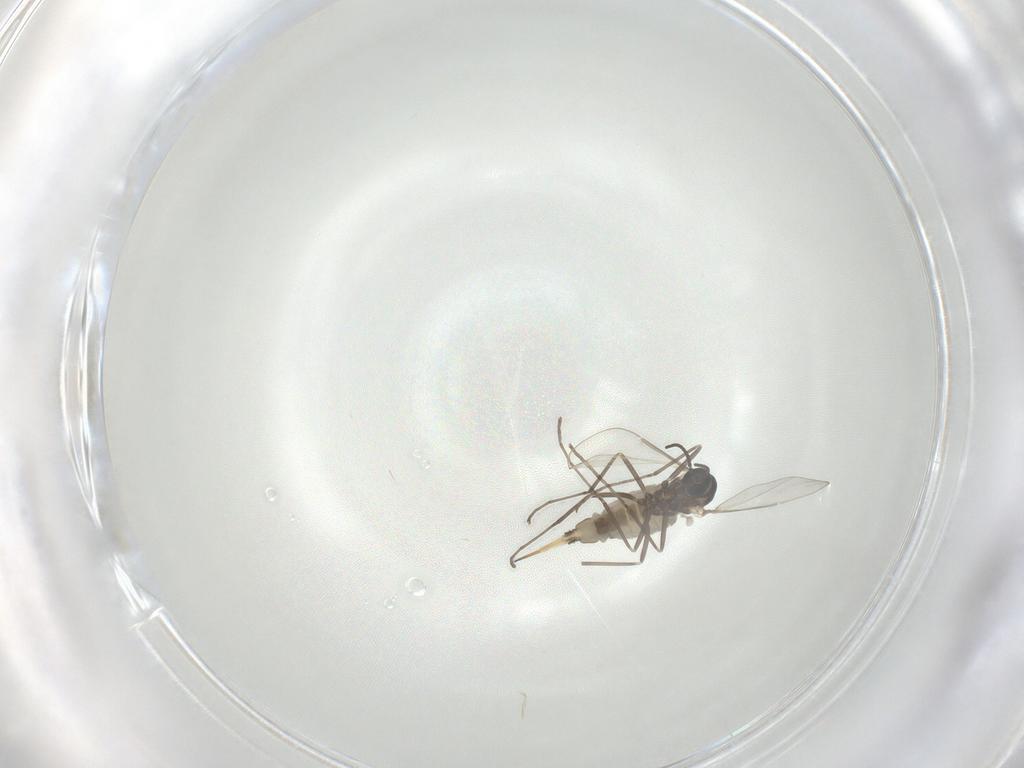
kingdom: Animalia
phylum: Arthropoda
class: Insecta
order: Diptera
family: Cecidomyiidae
